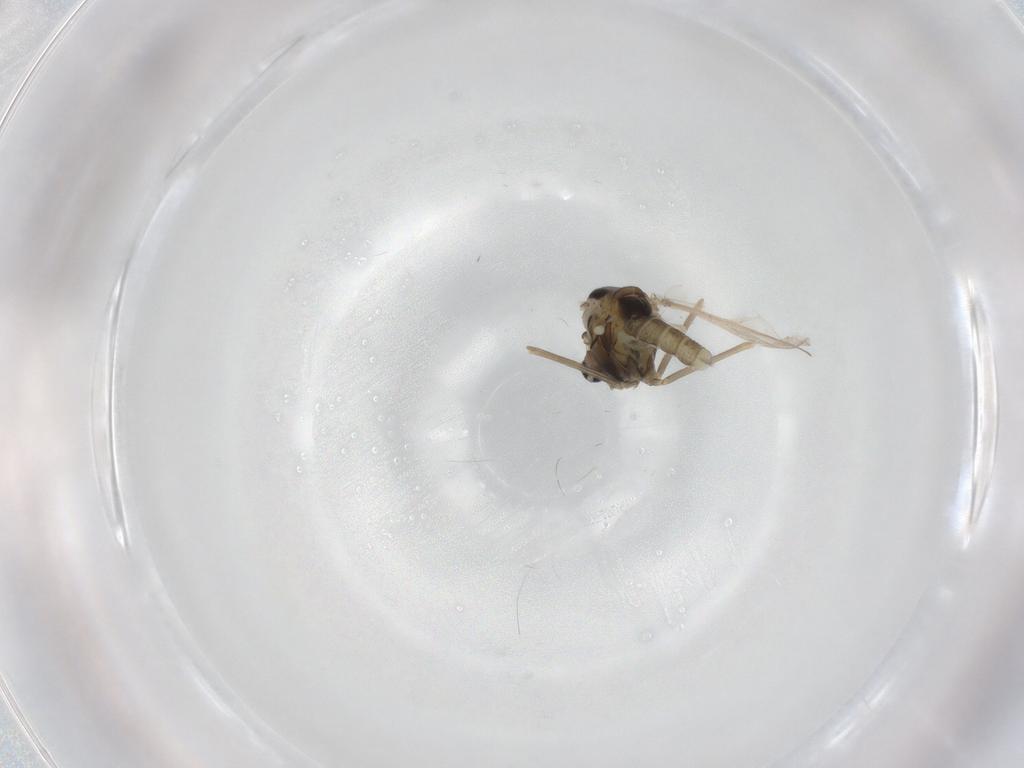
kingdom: Animalia
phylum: Arthropoda
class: Insecta
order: Diptera
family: Chironomidae
